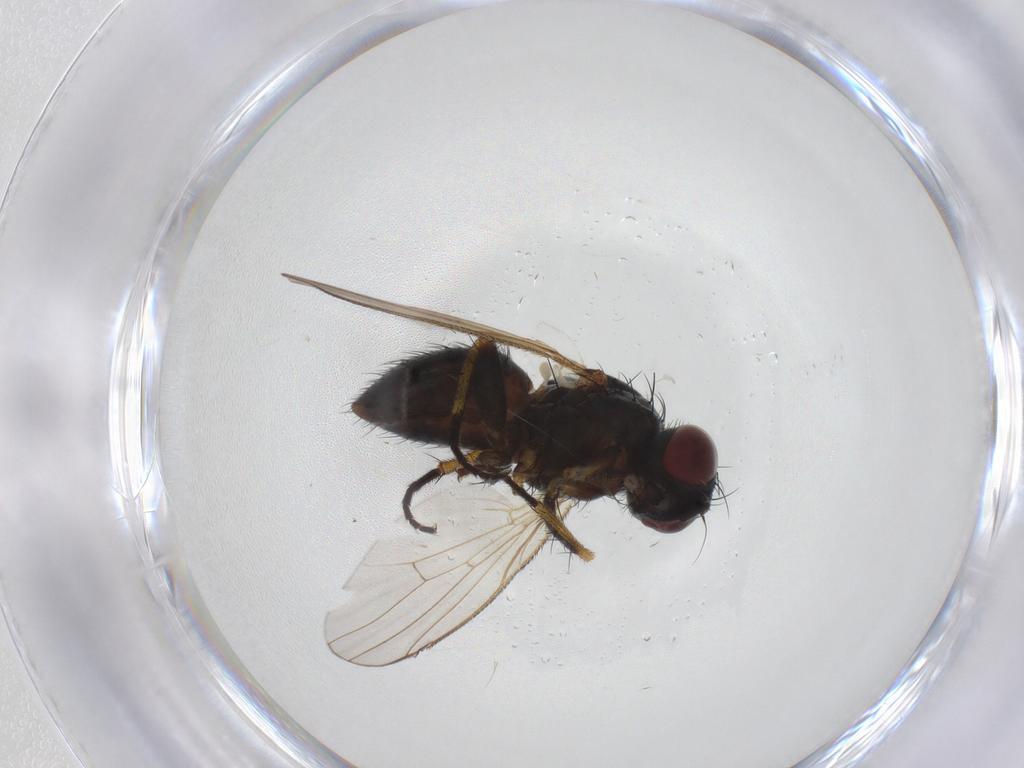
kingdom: Animalia
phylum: Arthropoda
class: Insecta
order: Diptera
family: Muscidae
